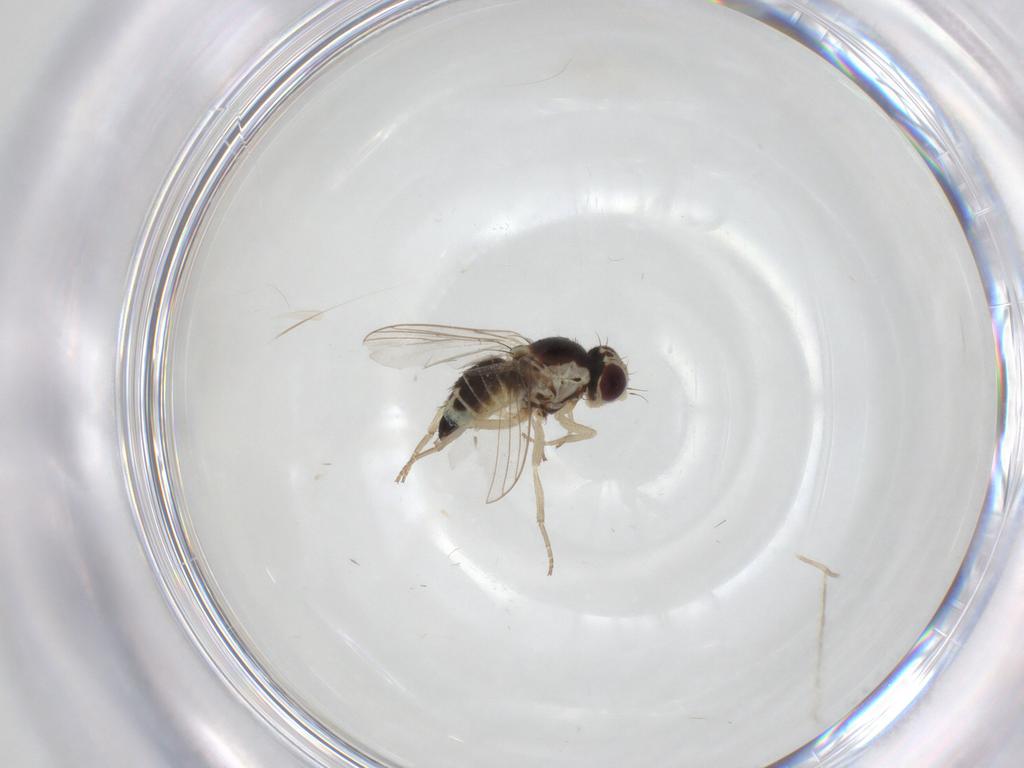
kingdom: Animalia
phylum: Arthropoda
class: Insecta
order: Diptera
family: Chironomidae
